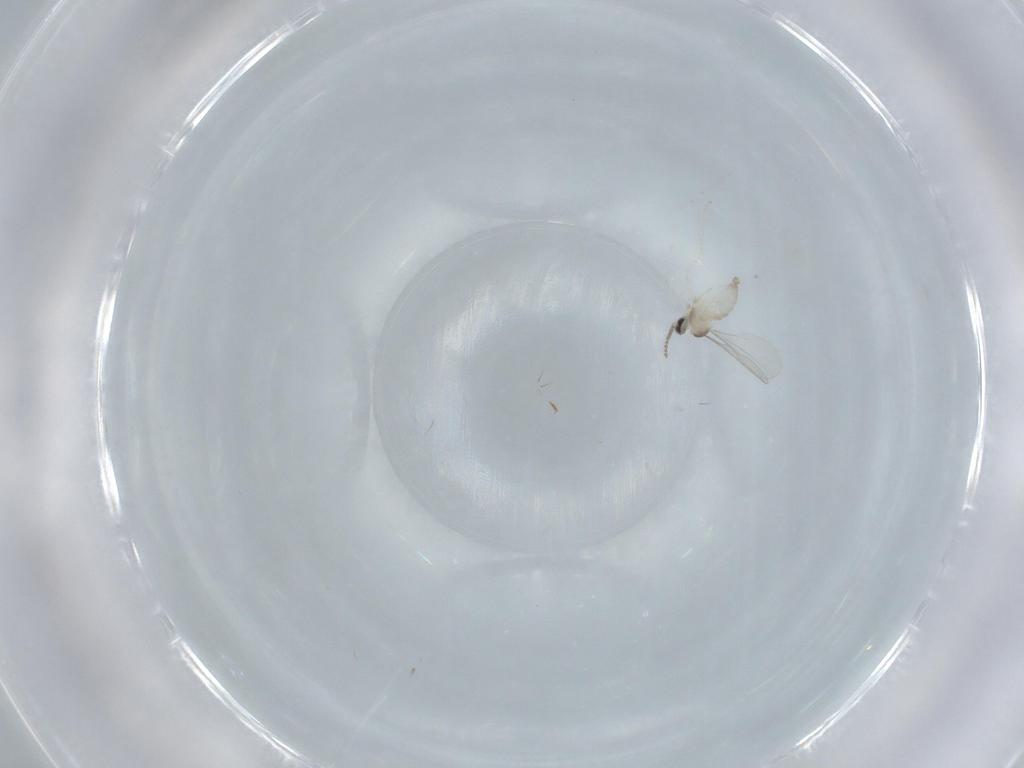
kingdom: Animalia
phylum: Arthropoda
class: Insecta
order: Diptera
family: Cecidomyiidae
